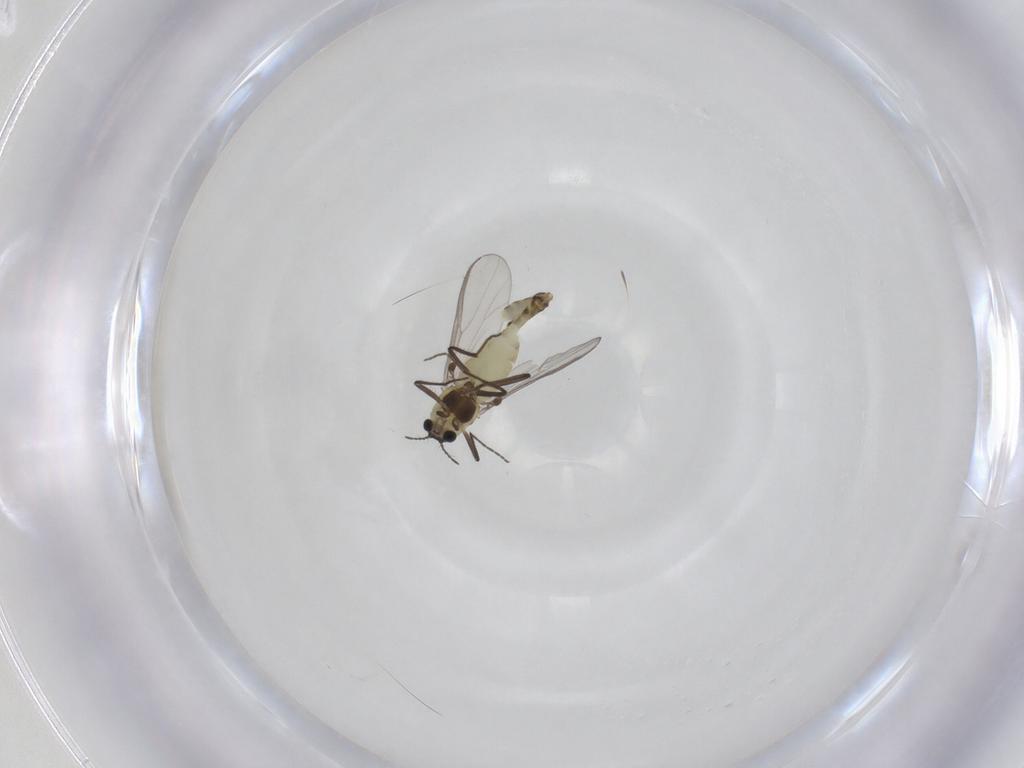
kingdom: Animalia
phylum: Arthropoda
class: Insecta
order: Diptera
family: Chironomidae
